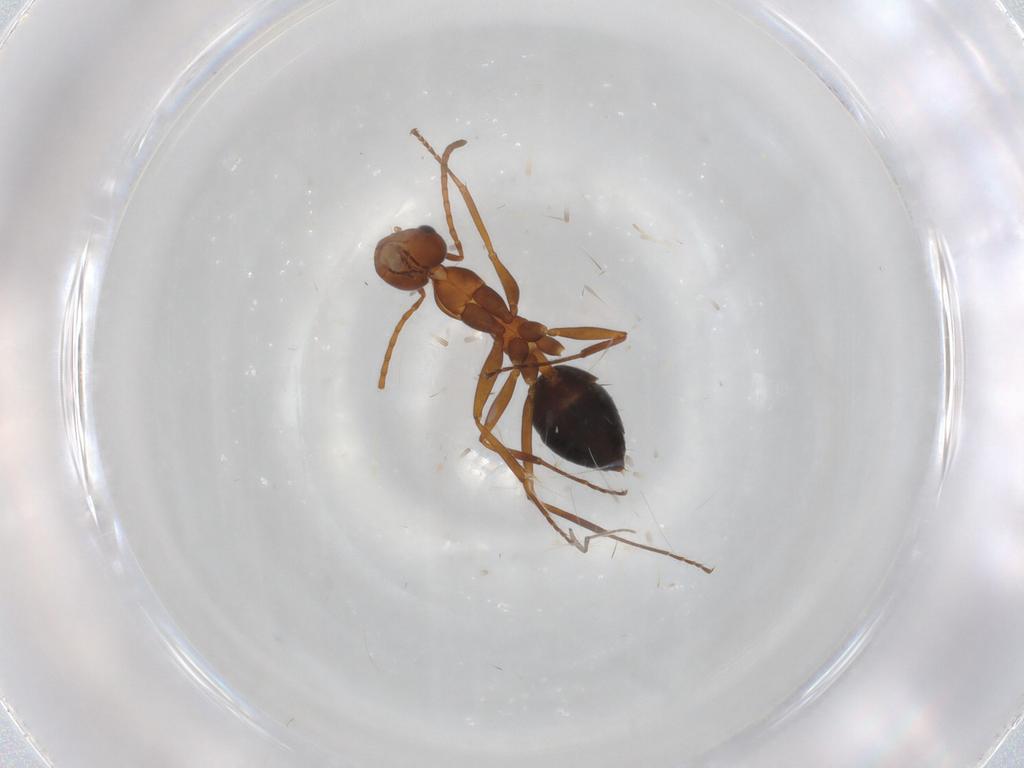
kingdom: Animalia
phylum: Arthropoda
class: Insecta
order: Hymenoptera
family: Formicidae
